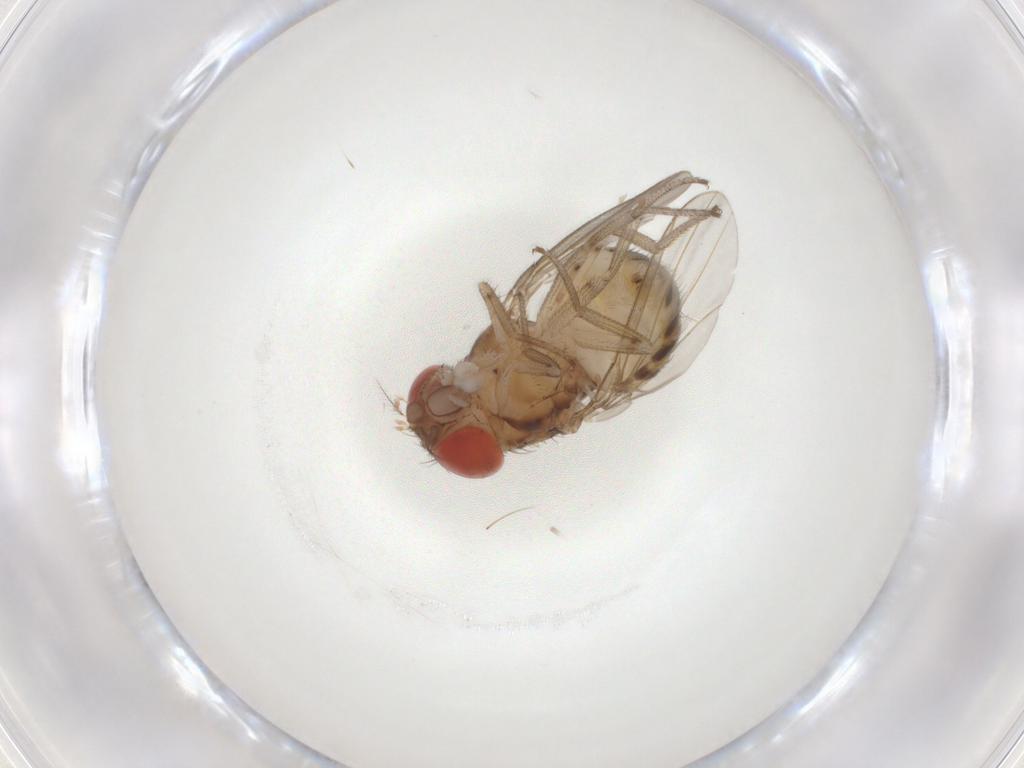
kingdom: Animalia
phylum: Arthropoda
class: Insecta
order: Diptera
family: Drosophilidae
